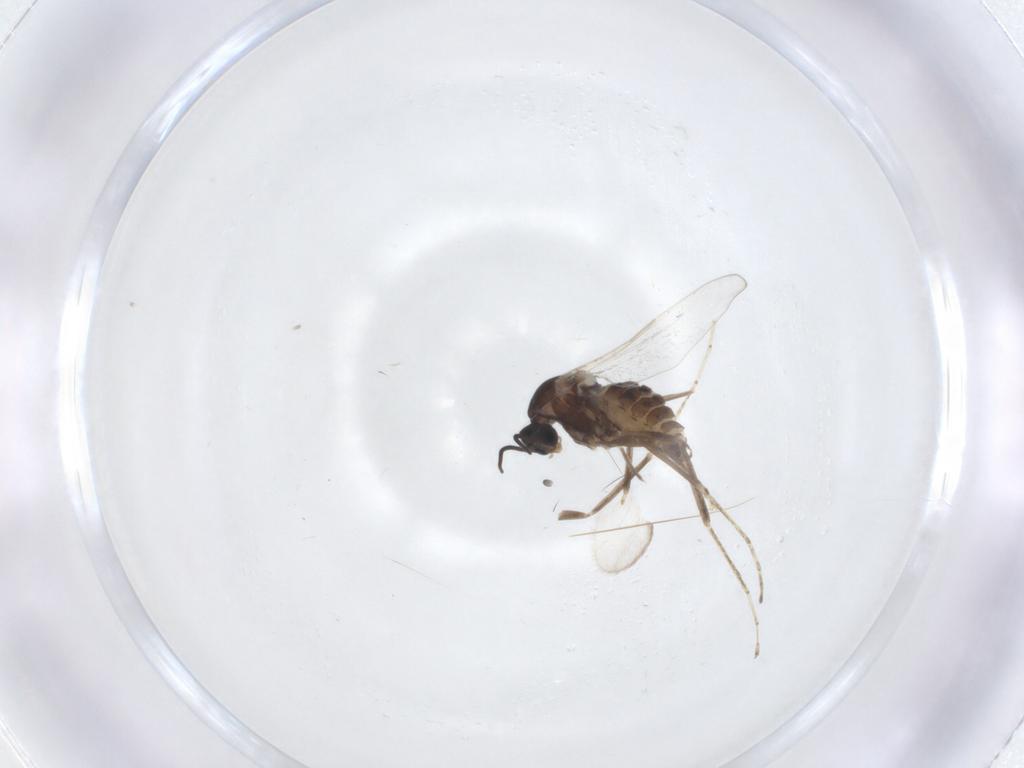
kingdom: Animalia
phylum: Arthropoda
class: Insecta
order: Diptera
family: Cecidomyiidae
